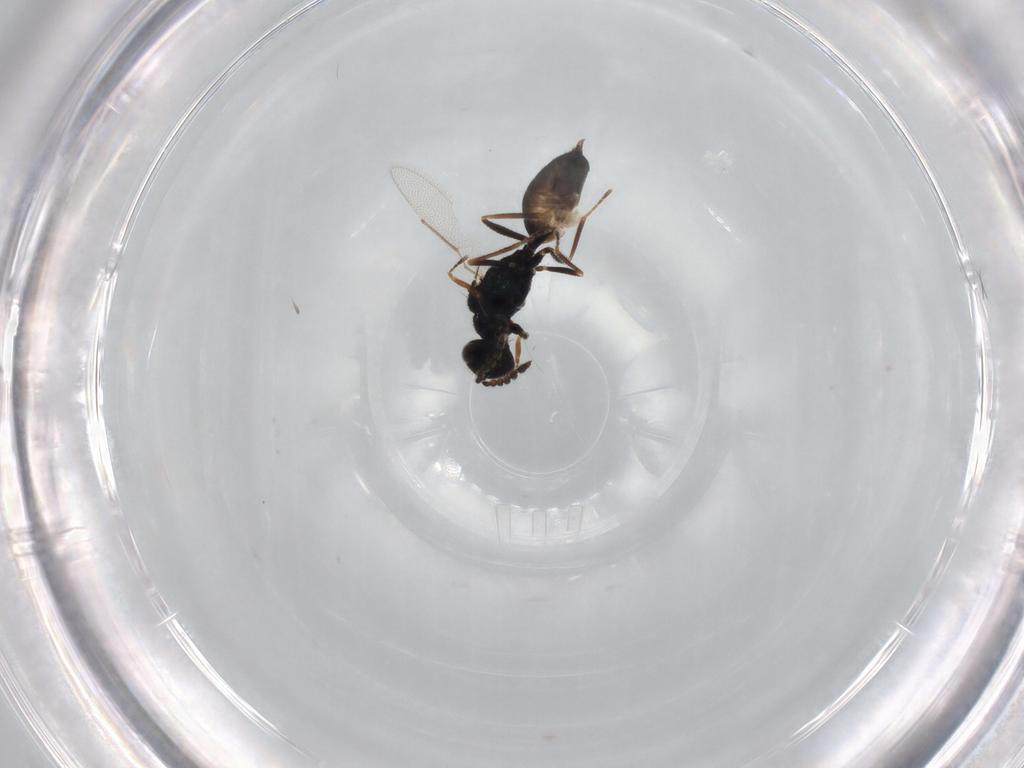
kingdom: Animalia
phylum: Arthropoda
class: Insecta
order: Hymenoptera
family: Eulophidae
